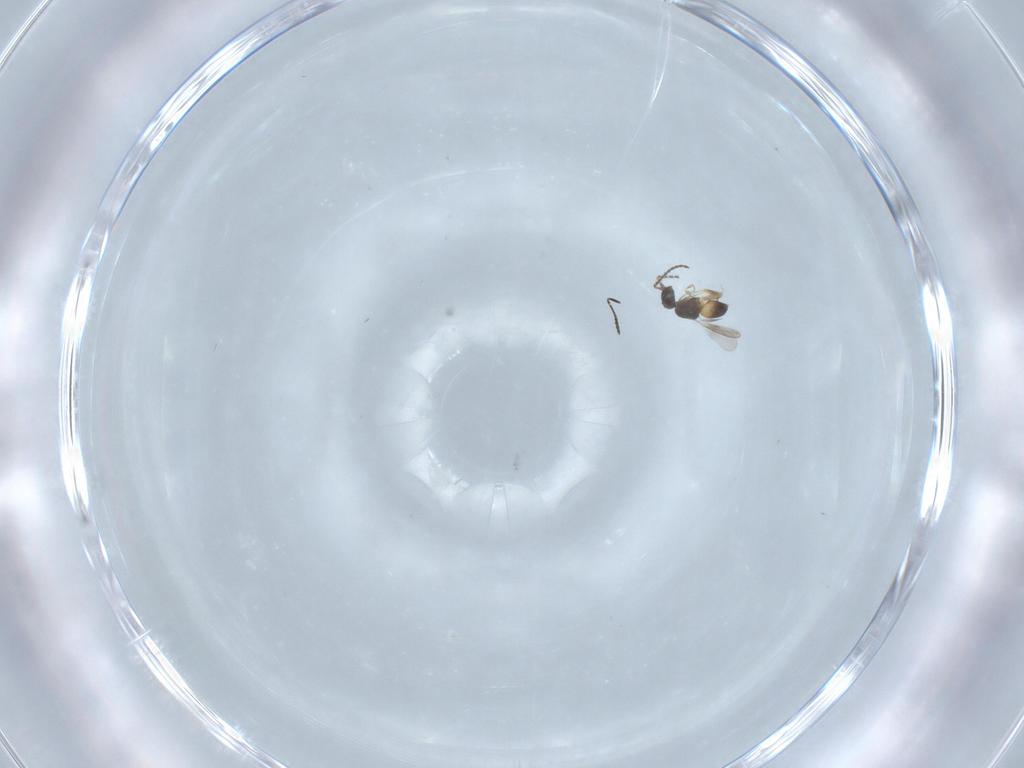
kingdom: Animalia
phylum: Arthropoda
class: Insecta
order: Hymenoptera
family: Scelionidae
